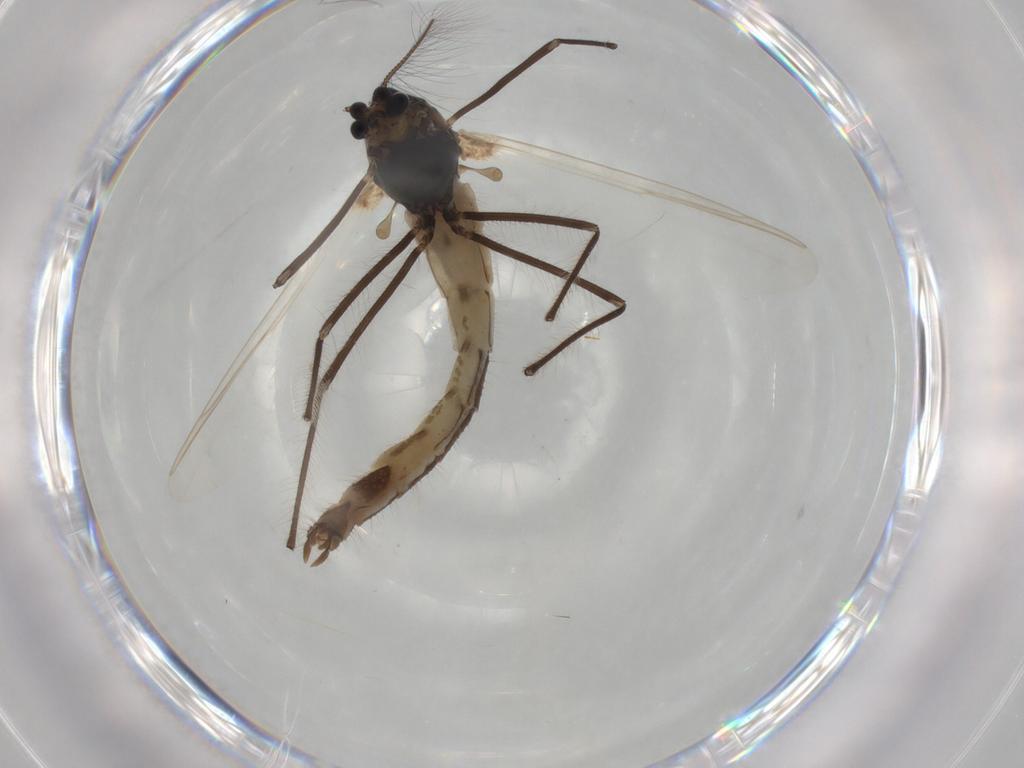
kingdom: Animalia
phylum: Arthropoda
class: Insecta
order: Diptera
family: Chironomidae
